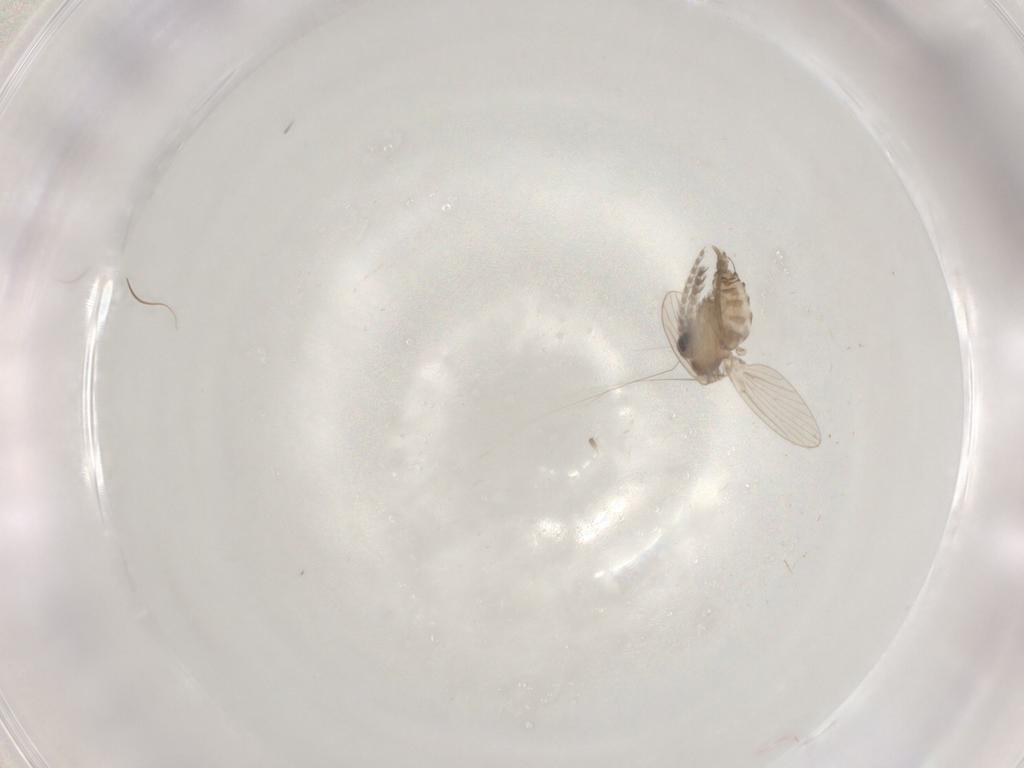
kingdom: Animalia
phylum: Arthropoda
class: Insecta
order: Diptera
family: Psychodidae
